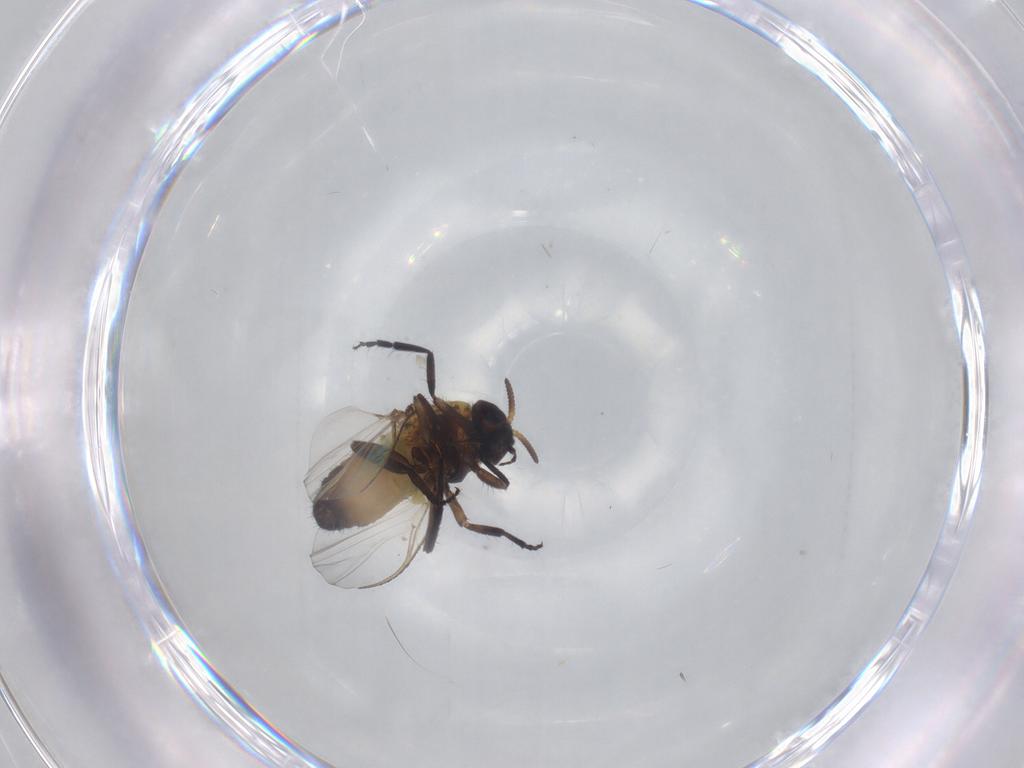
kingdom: Animalia
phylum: Arthropoda
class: Insecta
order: Diptera
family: Simuliidae
